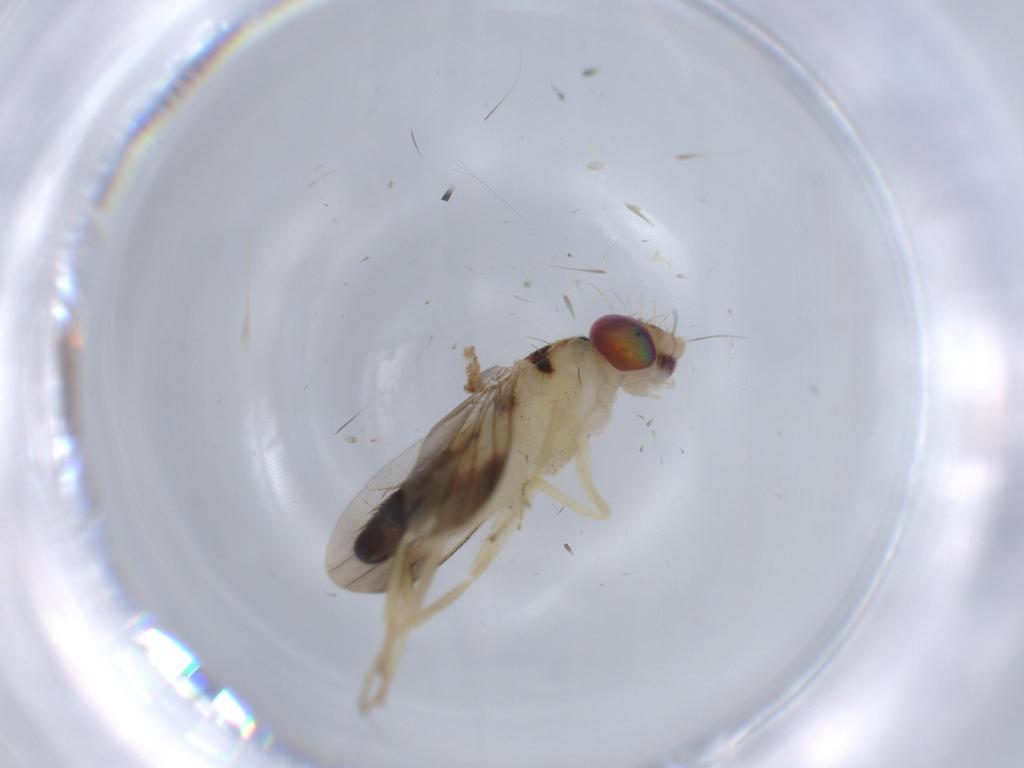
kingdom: Animalia
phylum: Arthropoda
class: Insecta
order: Diptera
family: Clusiidae
